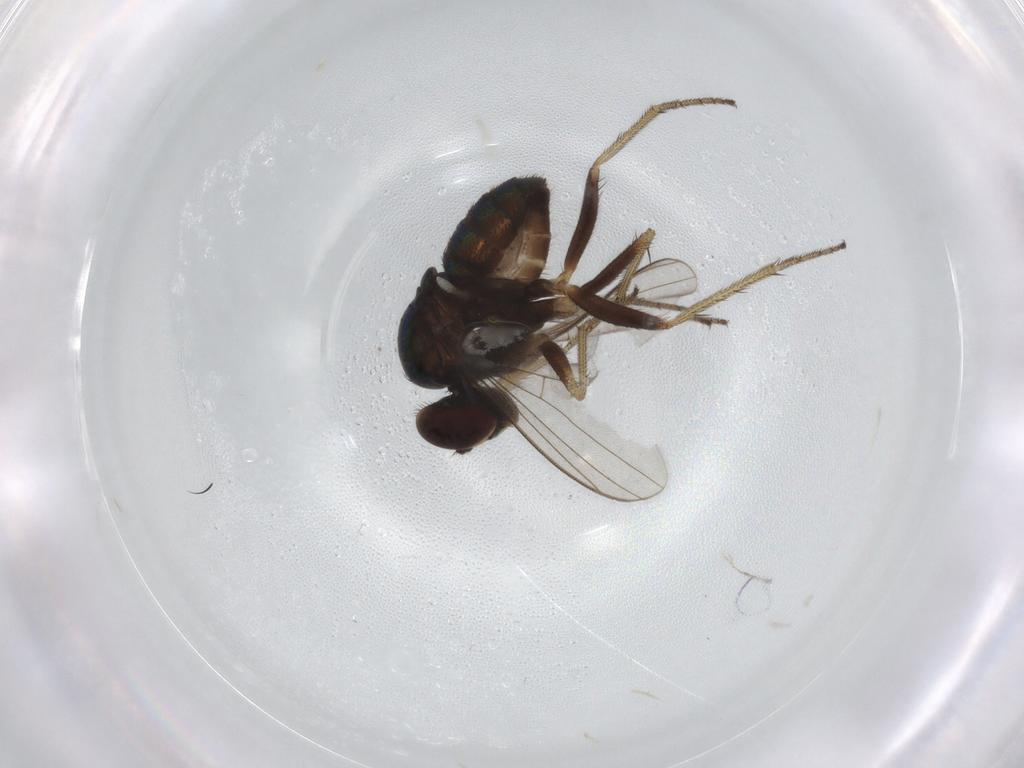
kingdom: Animalia
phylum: Arthropoda
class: Insecta
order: Diptera
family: Dolichopodidae
